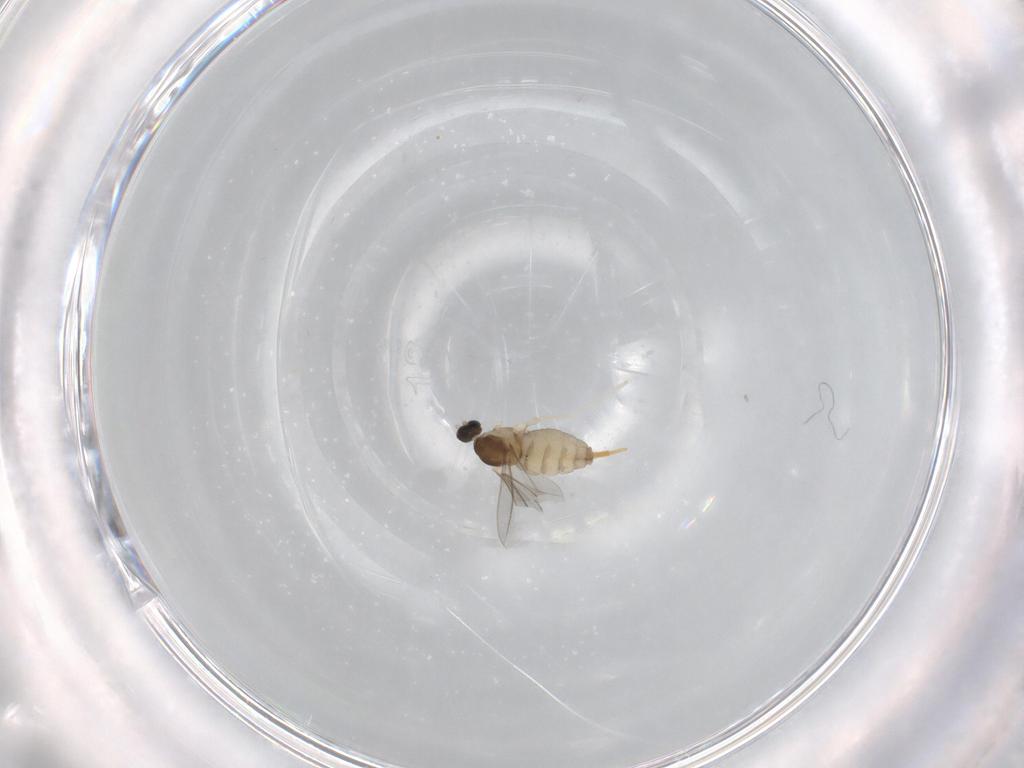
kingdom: Animalia
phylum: Arthropoda
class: Insecta
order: Diptera
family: Cecidomyiidae
